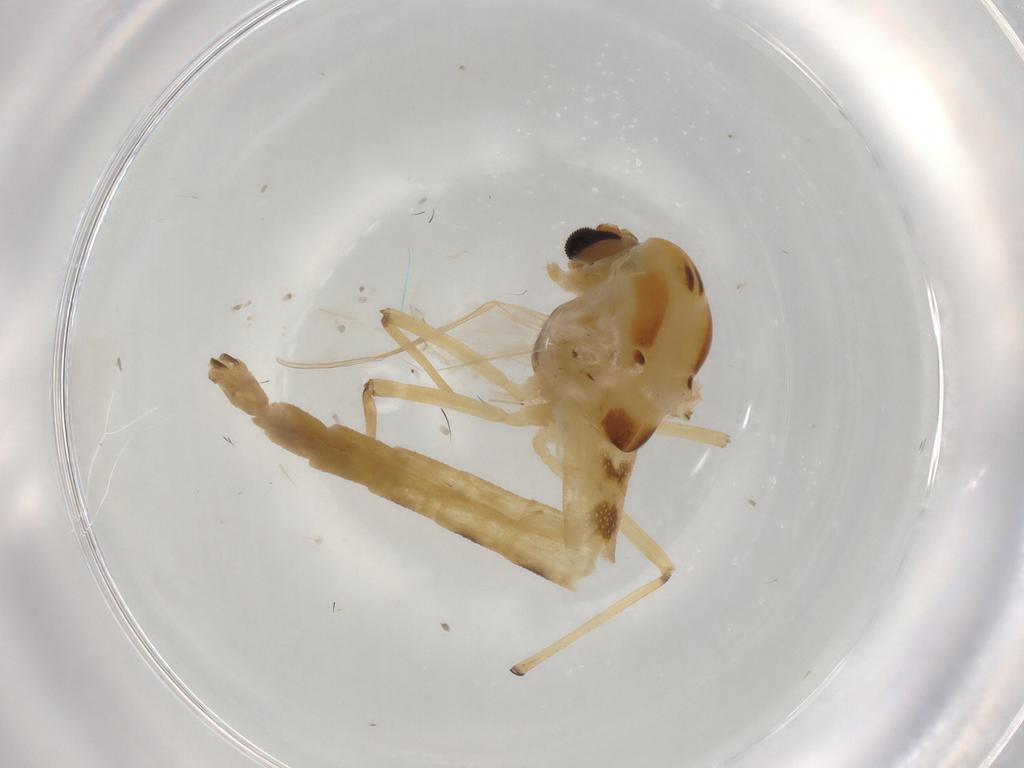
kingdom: Animalia
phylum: Arthropoda
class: Insecta
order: Diptera
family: Chironomidae
